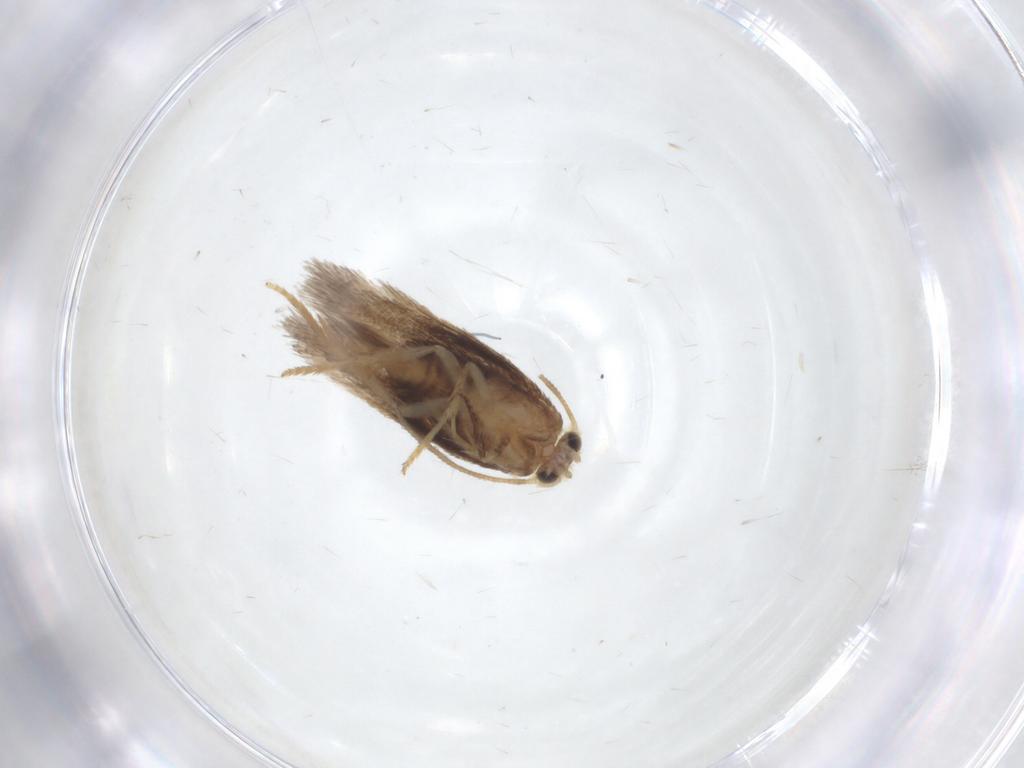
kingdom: Animalia
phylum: Arthropoda
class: Insecta
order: Lepidoptera
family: Nepticulidae
